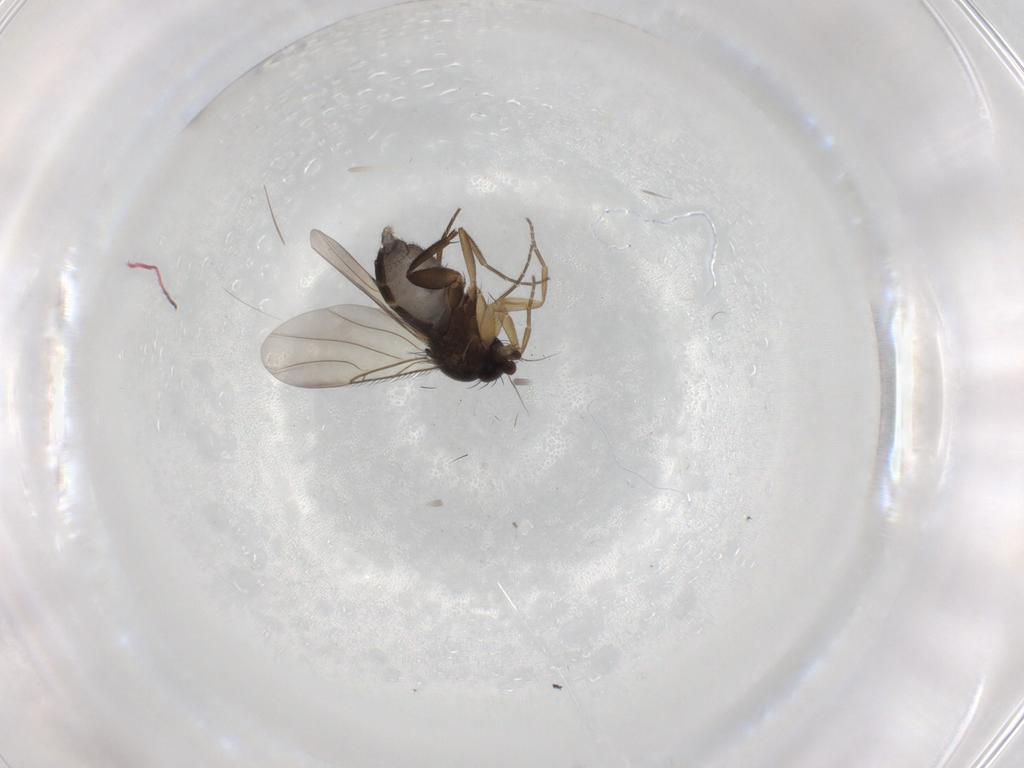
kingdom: Animalia
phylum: Arthropoda
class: Insecta
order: Diptera
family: Phoridae
